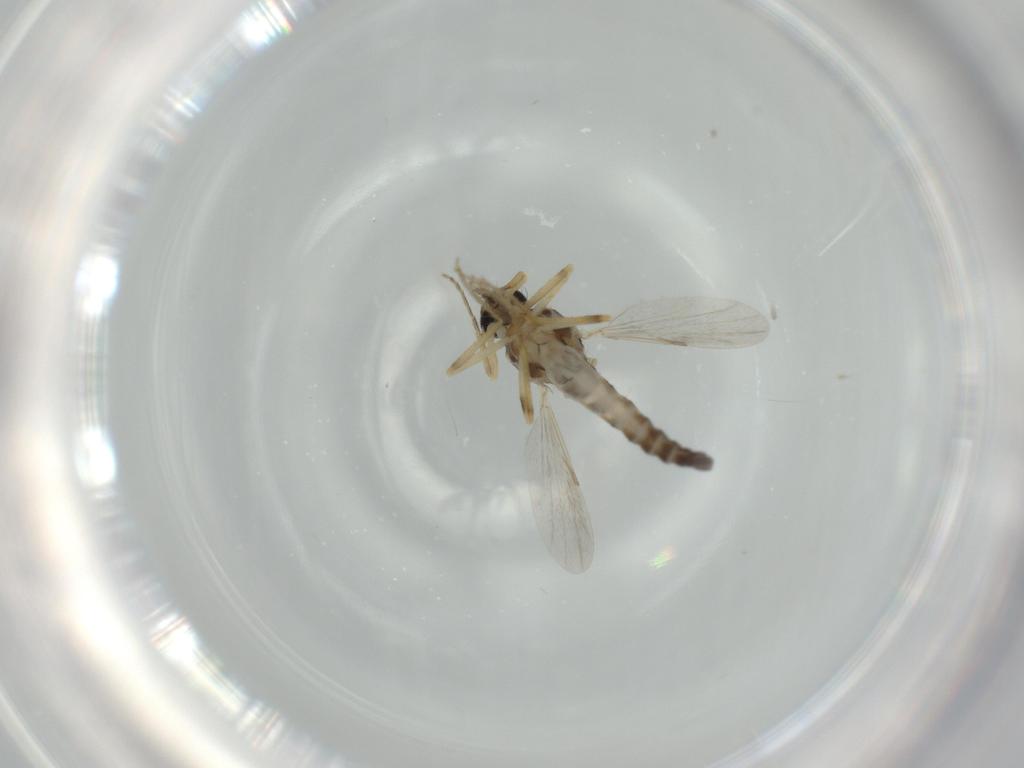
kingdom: Animalia
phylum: Arthropoda
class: Insecta
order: Diptera
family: Ceratopogonidae
